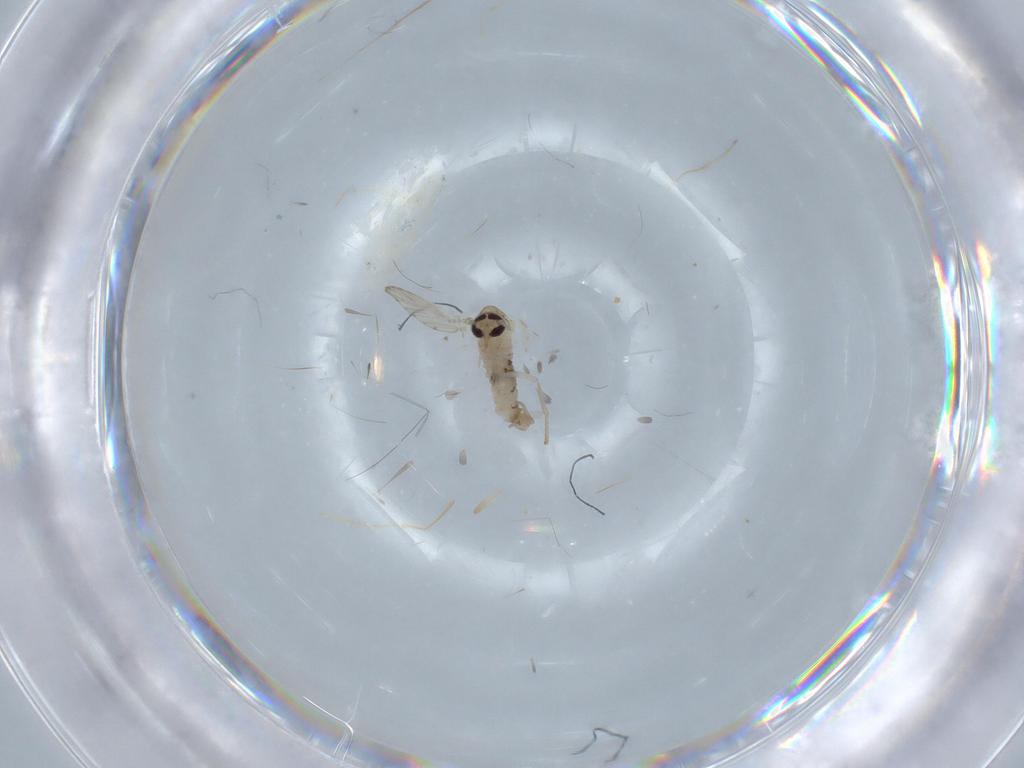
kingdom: Animalia
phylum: Arthropoda
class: Insecta
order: Diptera
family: Psychodidae
